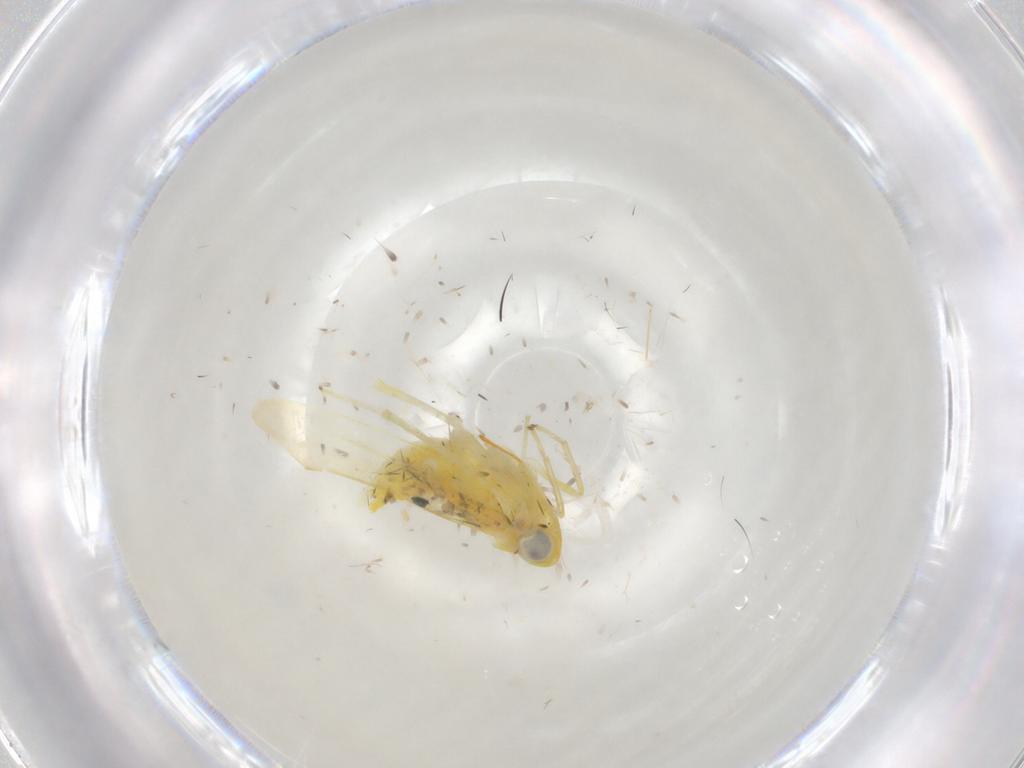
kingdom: Animalia
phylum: Arthropoda
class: Insecta
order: Hemiptera
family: Cicadellidae
